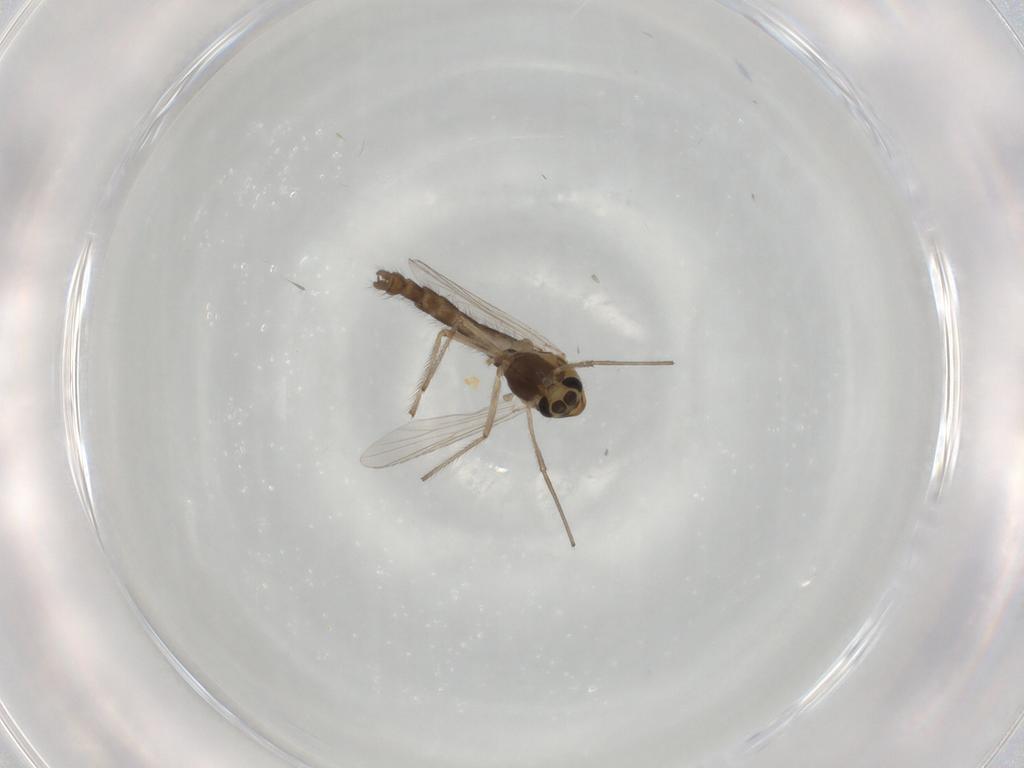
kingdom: Animalia
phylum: Arthropoda
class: Insecta
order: Diptera
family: Chironomidae
